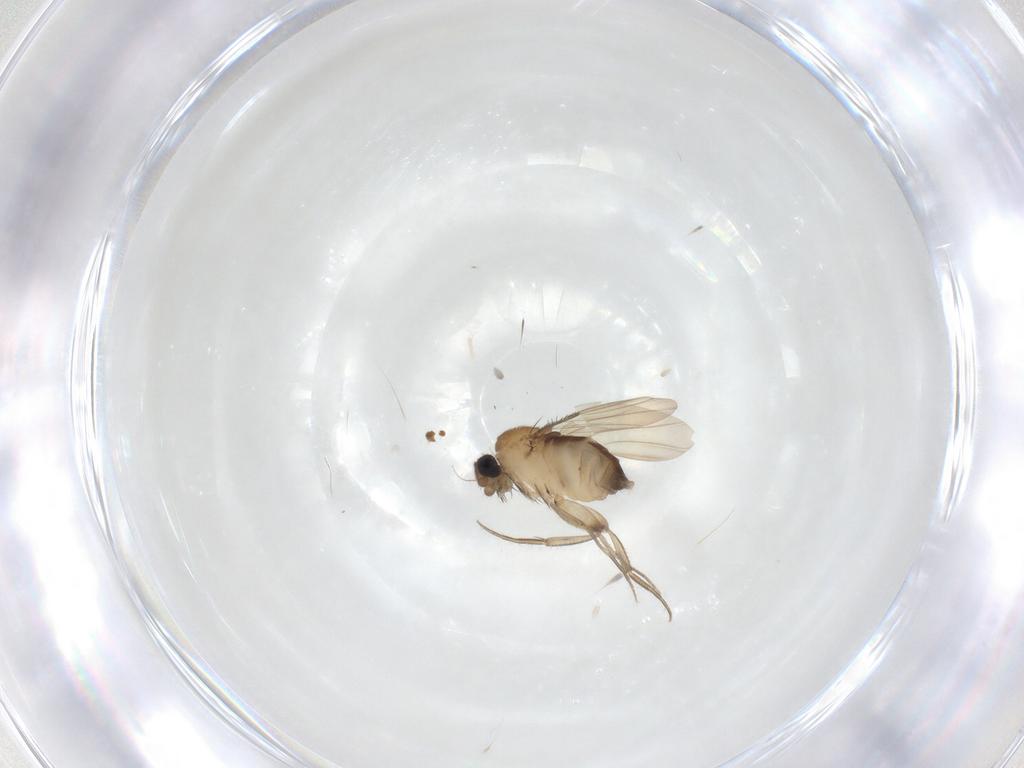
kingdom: Animalia
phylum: Arthropoda
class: Insecta
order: Diptera
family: Phoridae
